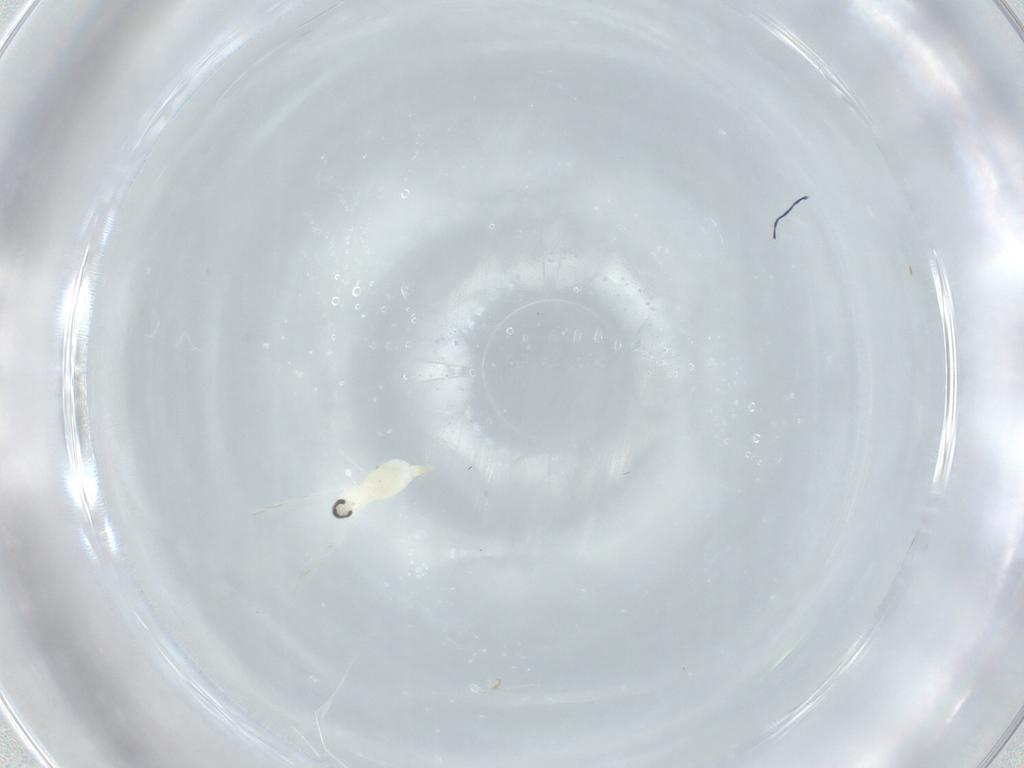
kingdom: Animalia
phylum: Arthropoda
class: Insecta
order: Diptera
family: Cecidomyiidae
